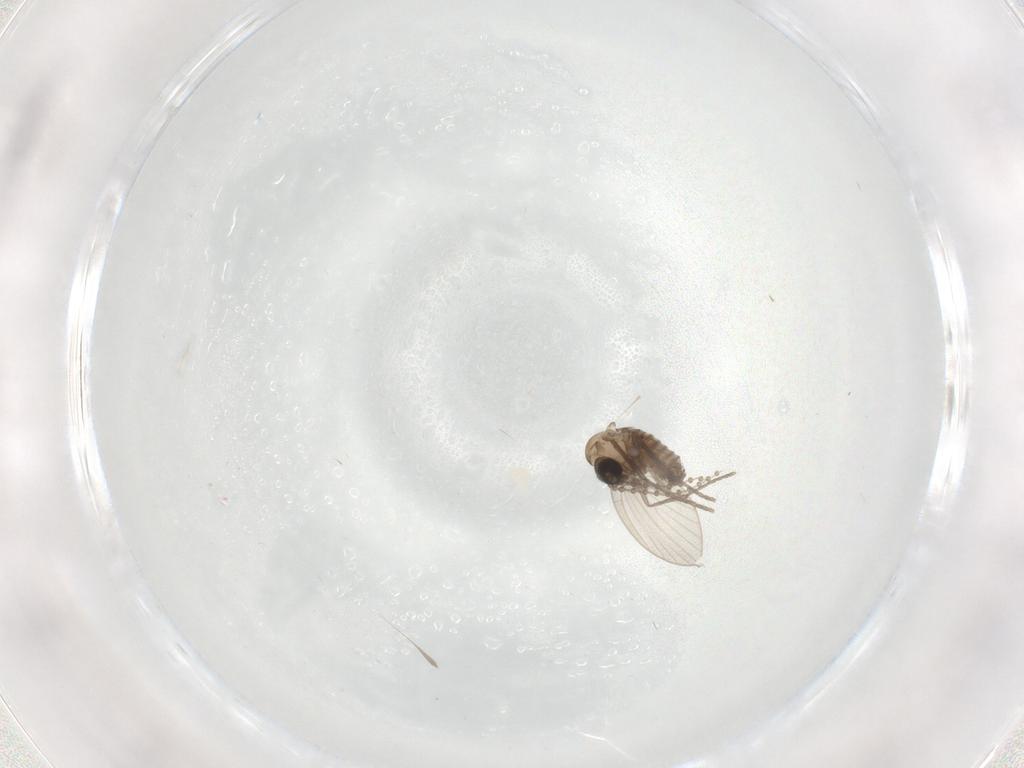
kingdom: Animalia
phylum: Arthropoda
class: Insecta
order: Diptera
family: Psychodidae
